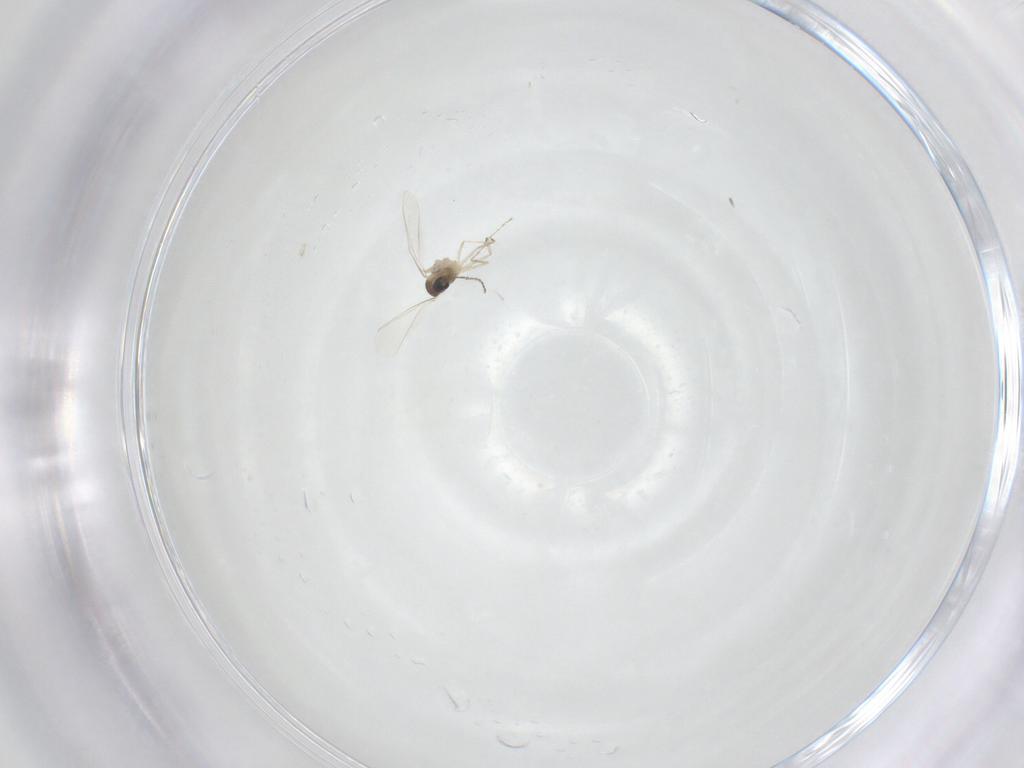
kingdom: Animalia
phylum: Arthropoda
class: Insecta
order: Diptera
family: Cecidomyiidae
